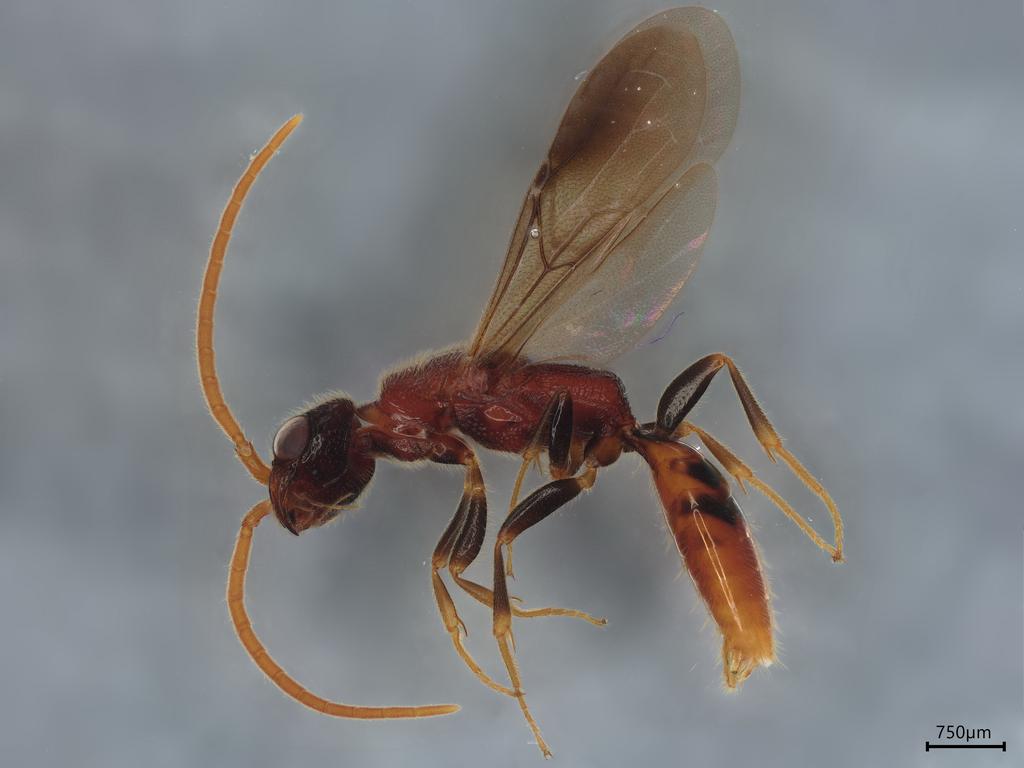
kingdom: Animalia
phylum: Arthropoda
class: Insecta
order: Hymenoptera
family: Bethylidae
